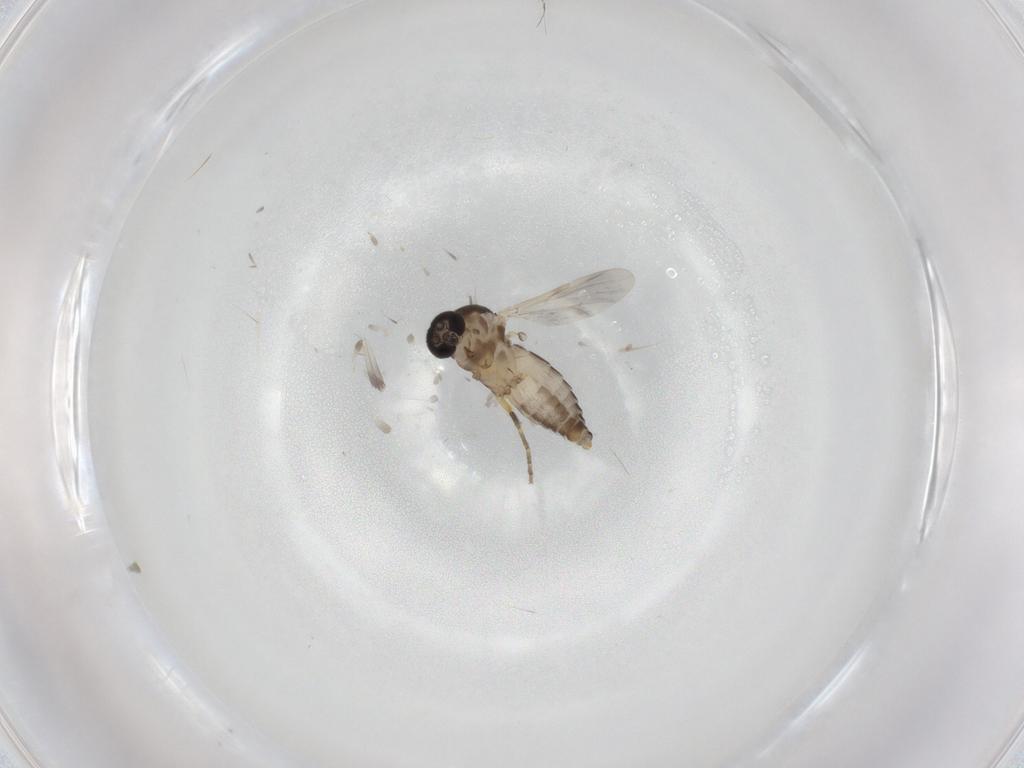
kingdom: Animalia
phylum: Arthropoda
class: Insecta
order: Diptera
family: Ceratopogonidae
